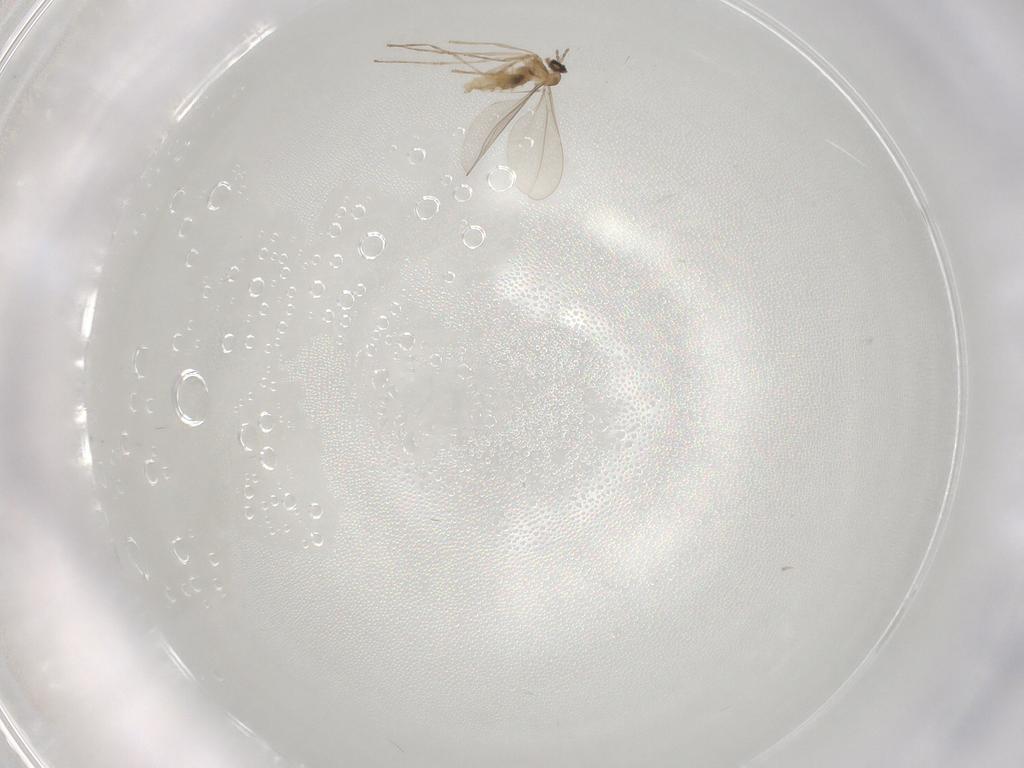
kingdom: Animalia
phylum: Arthropoda
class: Insecta
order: Diptera
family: Cecidomyiidae
